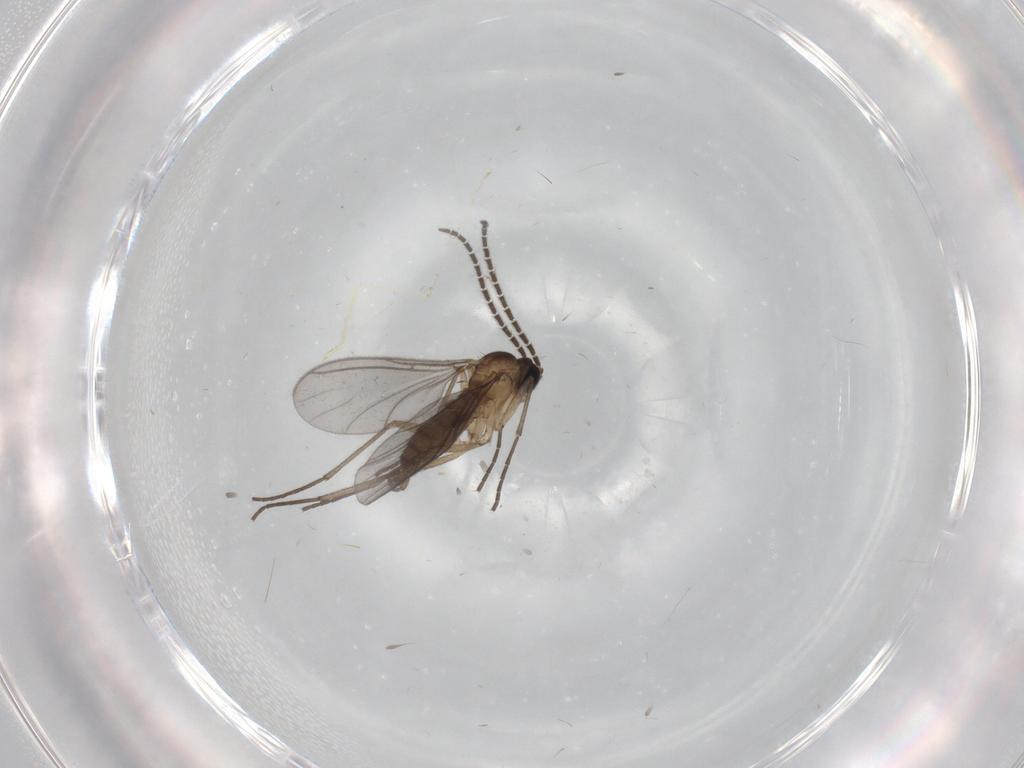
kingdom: Animalia
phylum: Arthropoda
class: Insecta
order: Diptera
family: Sciaridae
